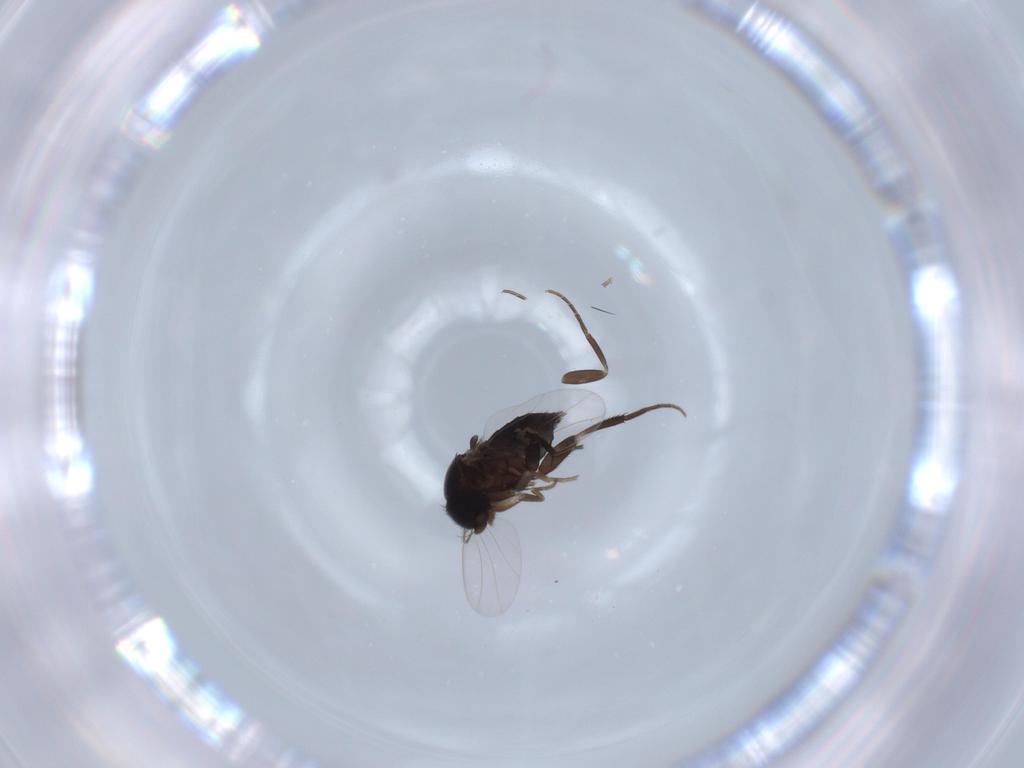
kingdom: Animalia
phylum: Arthropoda
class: Insecta
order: Diptera
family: Phoridae
